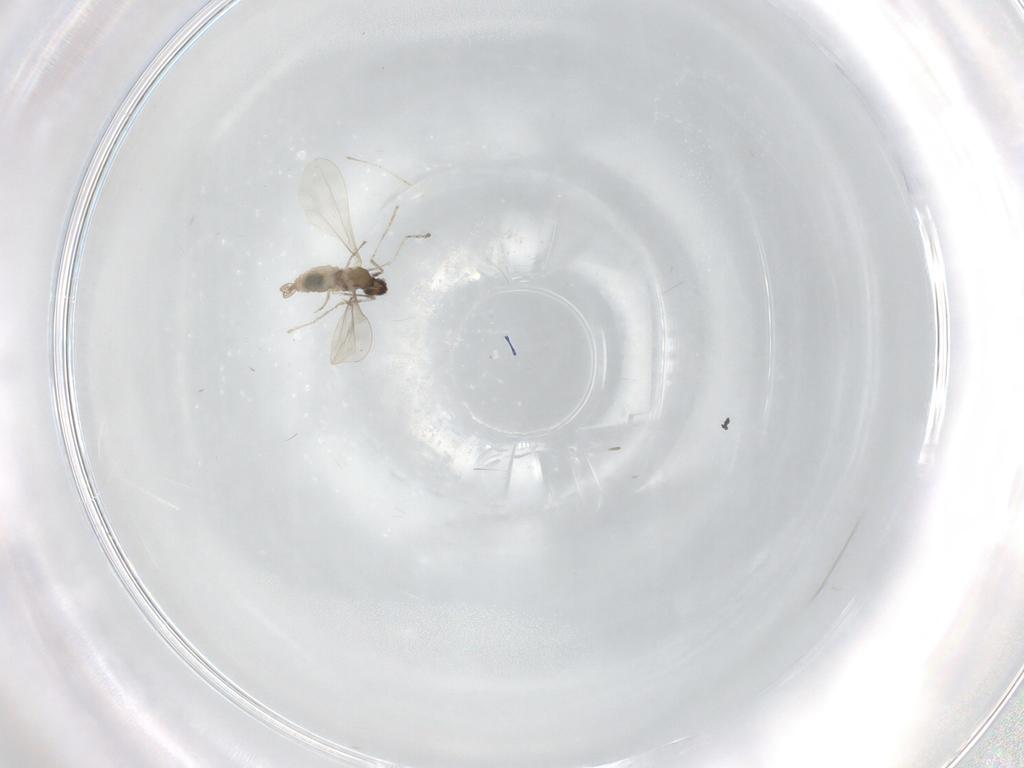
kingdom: Animalia
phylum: Arthropoda
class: Insecta
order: Diptera
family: Cecidomyiidae
